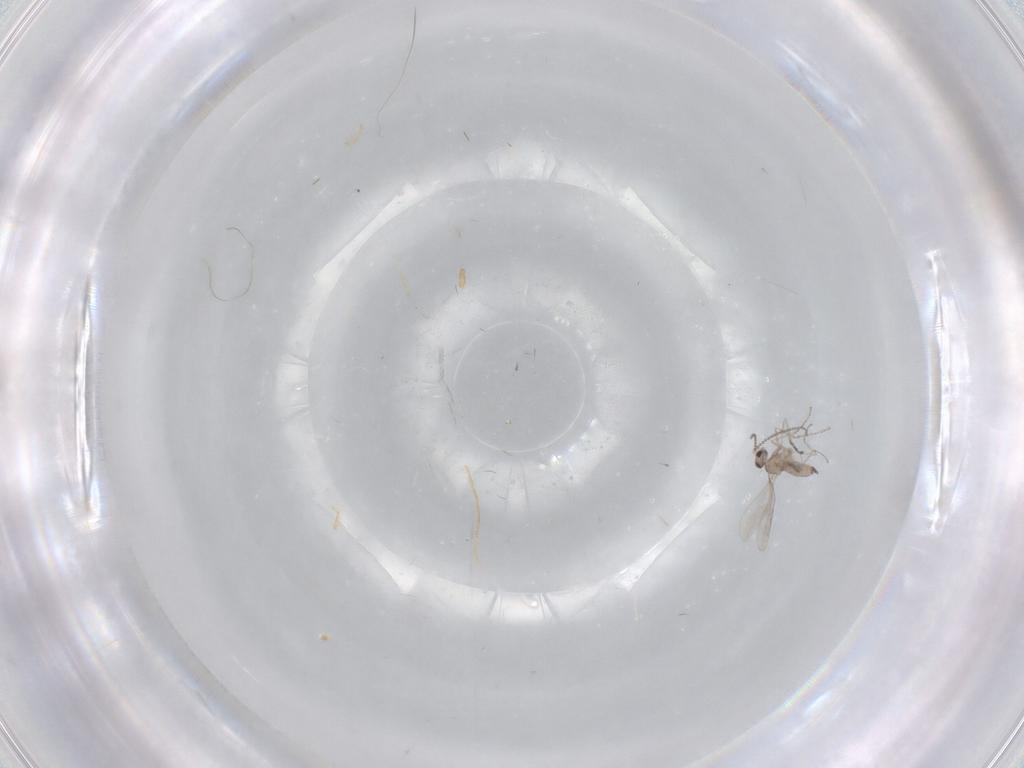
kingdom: Animalia
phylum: Arthropoda
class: Insecta
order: Diptera
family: Cecidomyiidae
